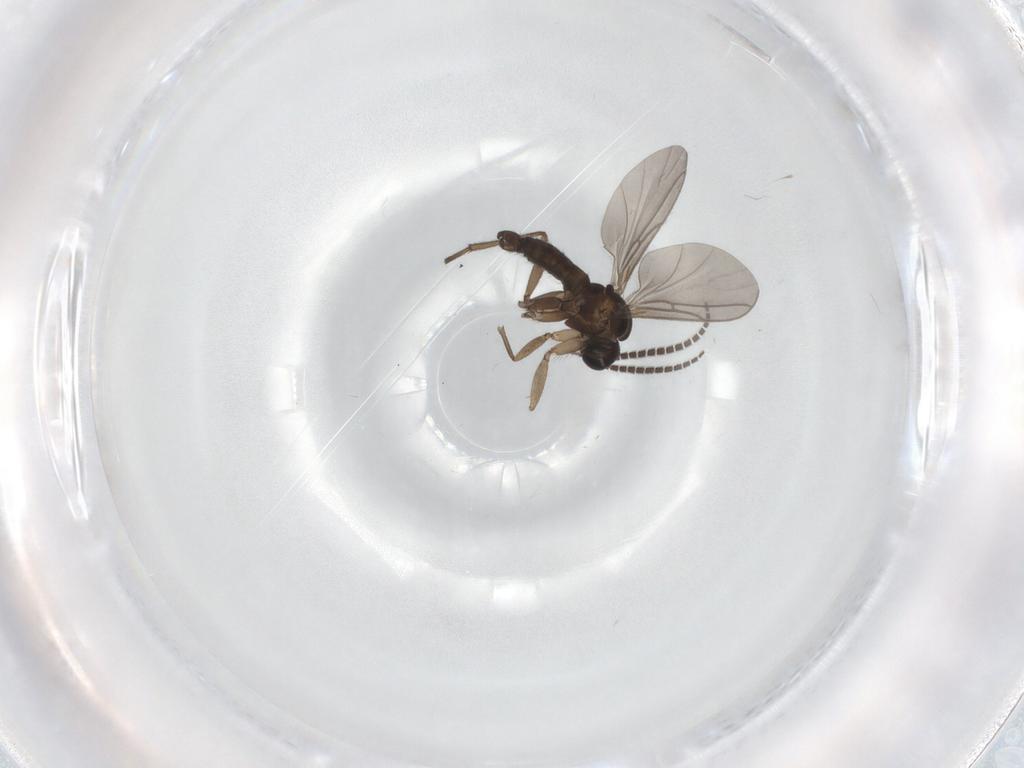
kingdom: Animalia
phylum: Arthropoda
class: Insecta
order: Diptera
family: Sciaridae
